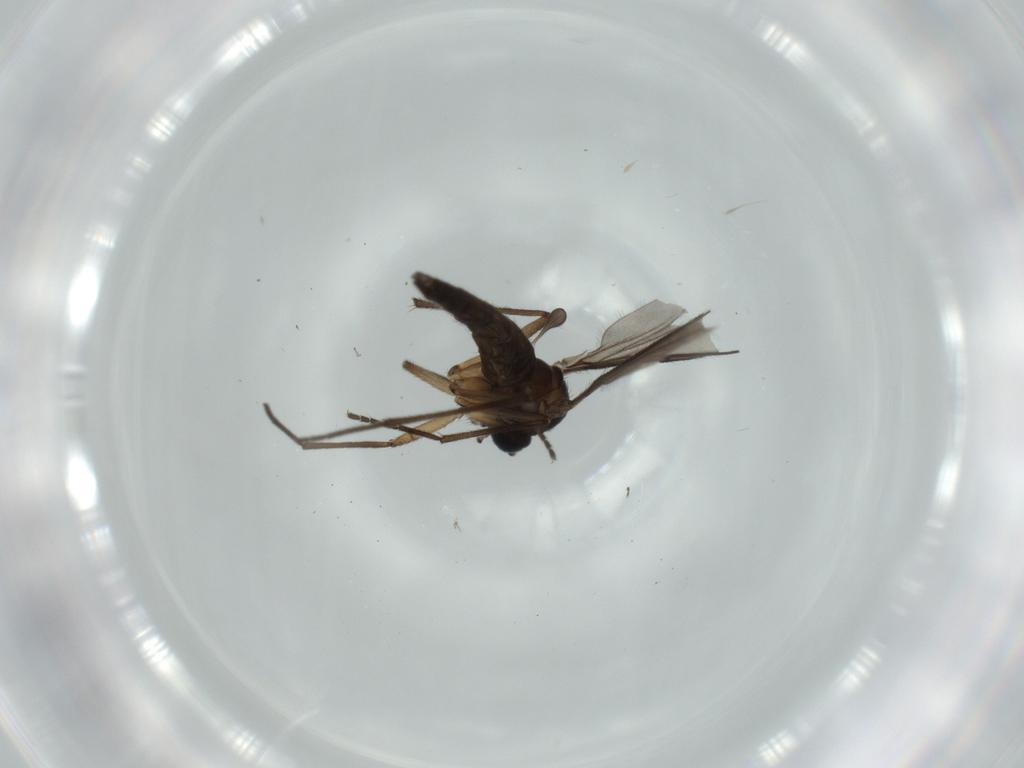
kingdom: Animalia
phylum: Arthropoda
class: Insecta
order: Diptera
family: Sciaridae
